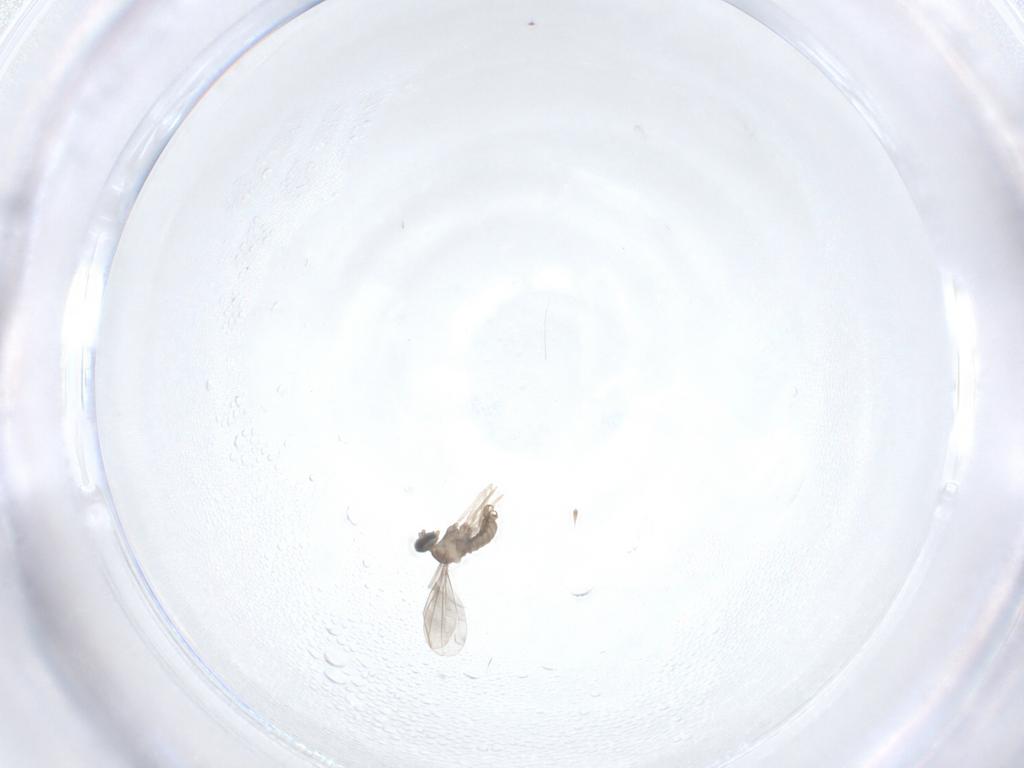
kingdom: Animalia
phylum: Arthropoda
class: Insecta
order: Diptera
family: Cecidomyiidae
